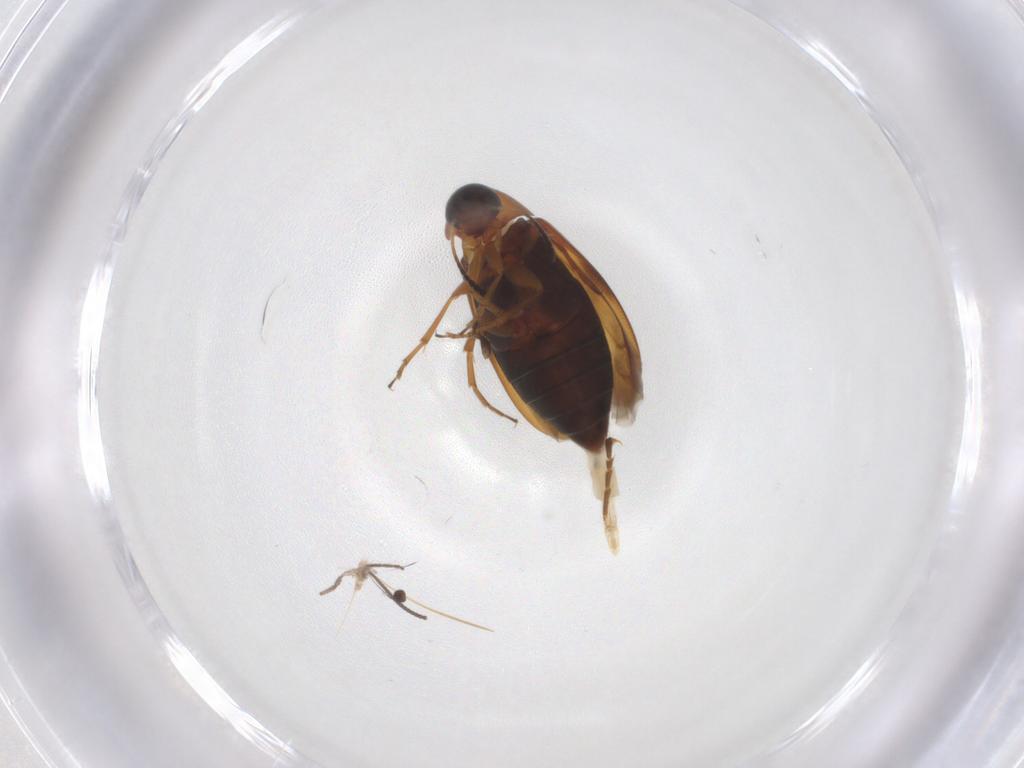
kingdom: Animalia
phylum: Arthropoda
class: Insecta
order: Coleoptera
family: Scraptiidae
